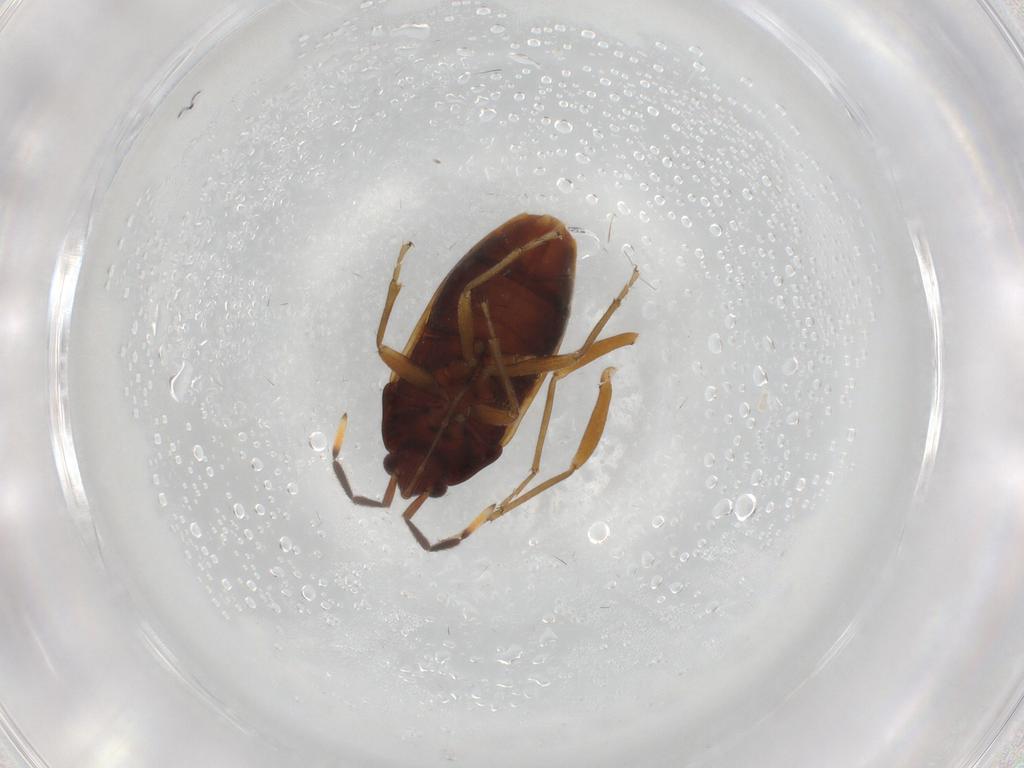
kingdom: Animalia
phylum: Arthropoda
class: Insecta
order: Hemiptera
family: Rhyparochromidae
